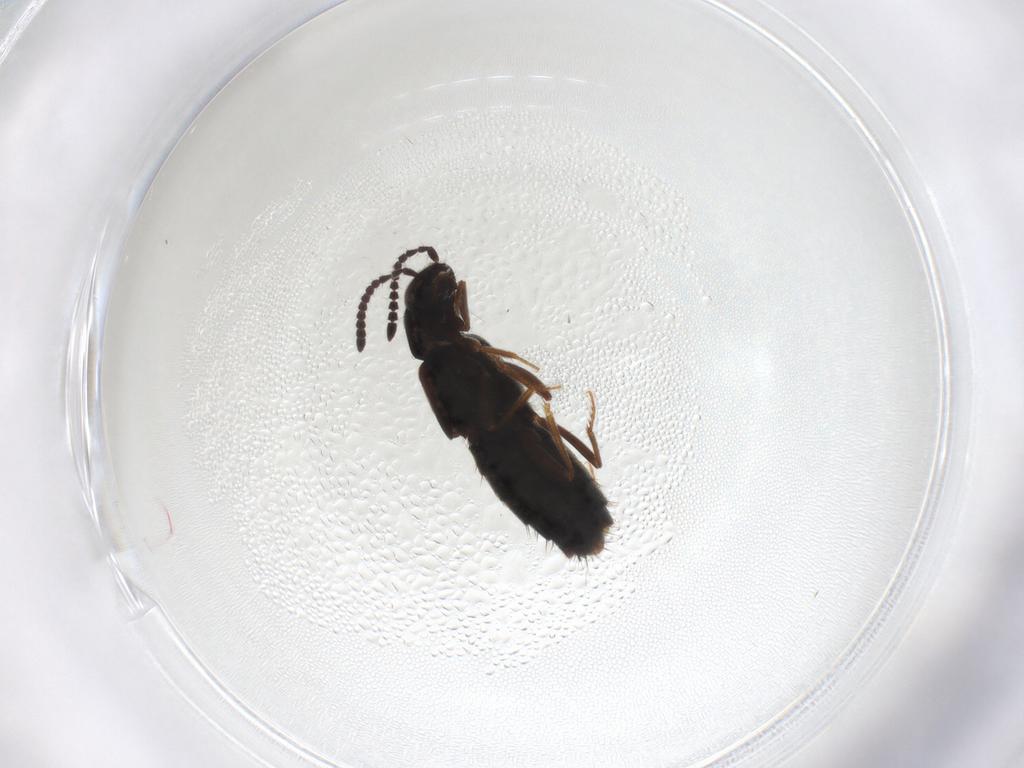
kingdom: Animalia
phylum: Arthropoda
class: Insecta
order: Coleoptera
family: Staphylinidae
